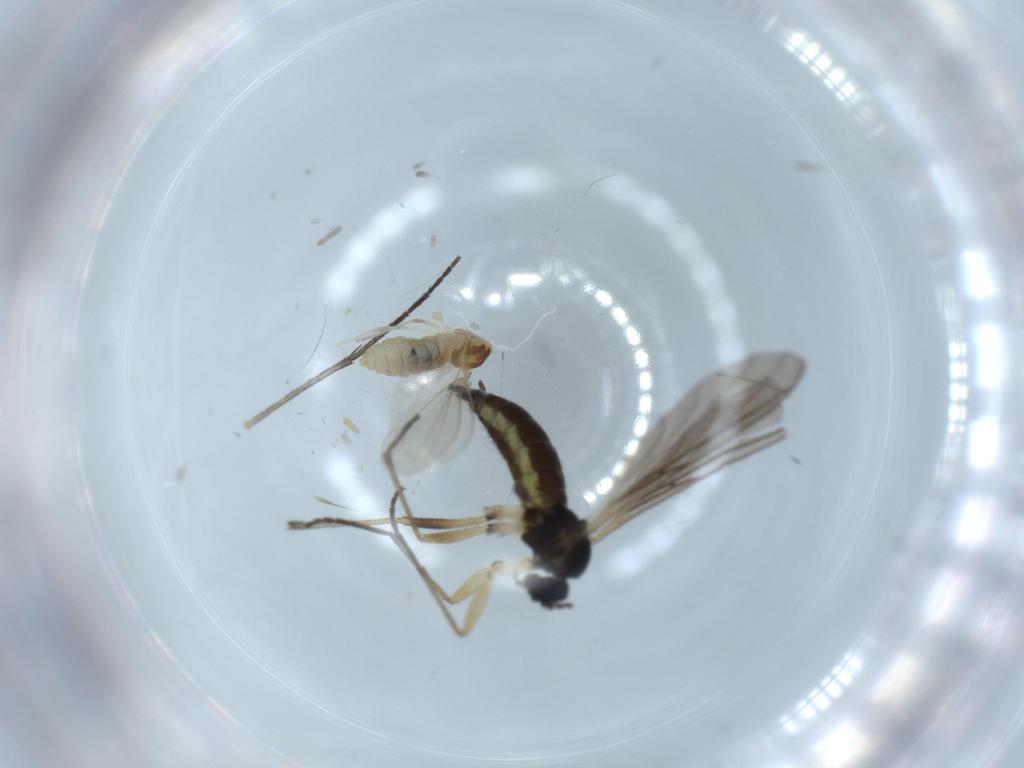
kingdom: Animalia
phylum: Arthropoda
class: Insecta
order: Diptera
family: Sciaridae
